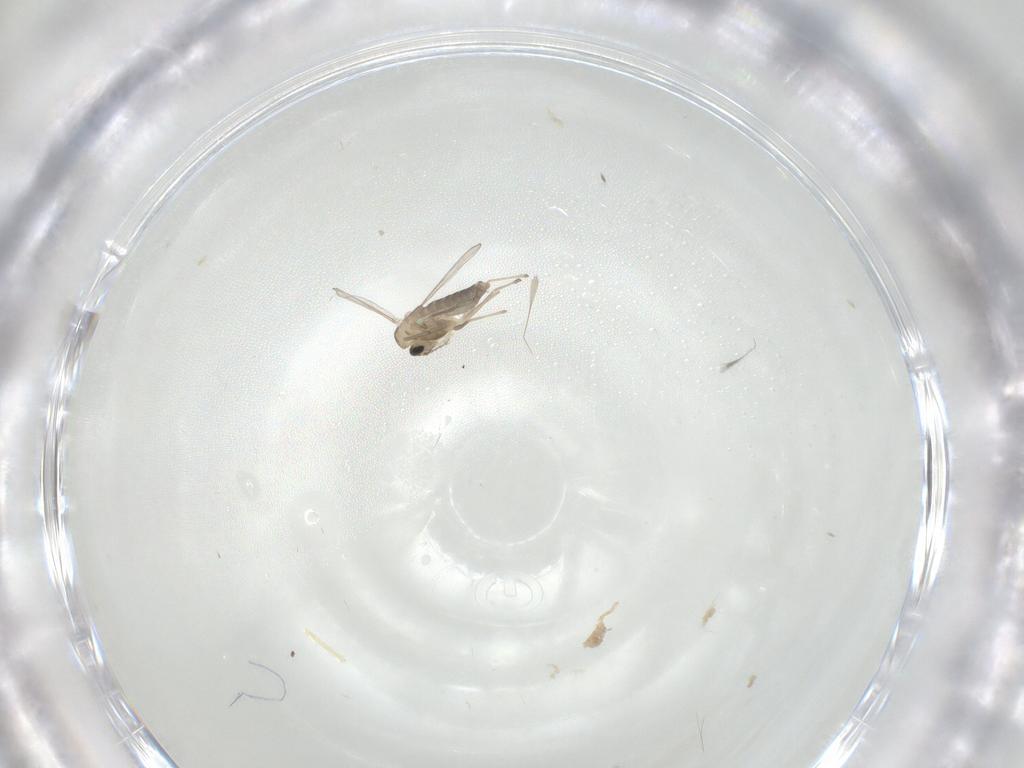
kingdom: Animalia
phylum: Arthropoda
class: Insecta
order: Diptera
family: Chironomidae
